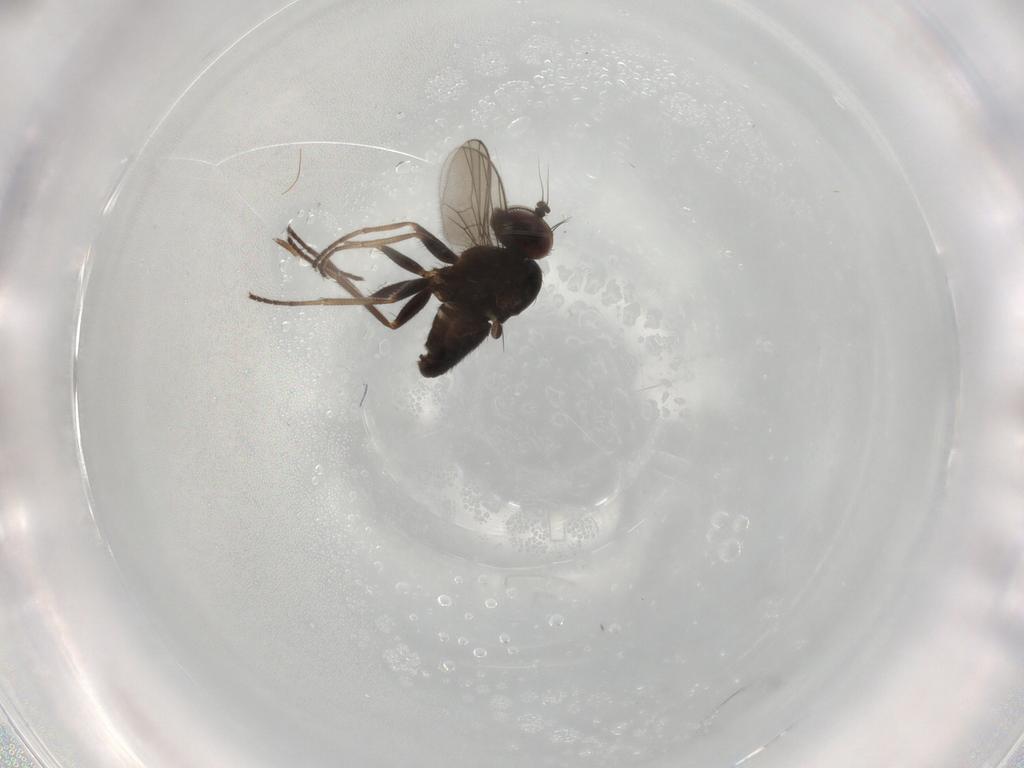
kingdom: Animalia
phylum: Arthropoda
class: Insecta
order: Diptera
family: Dolichopodidae
